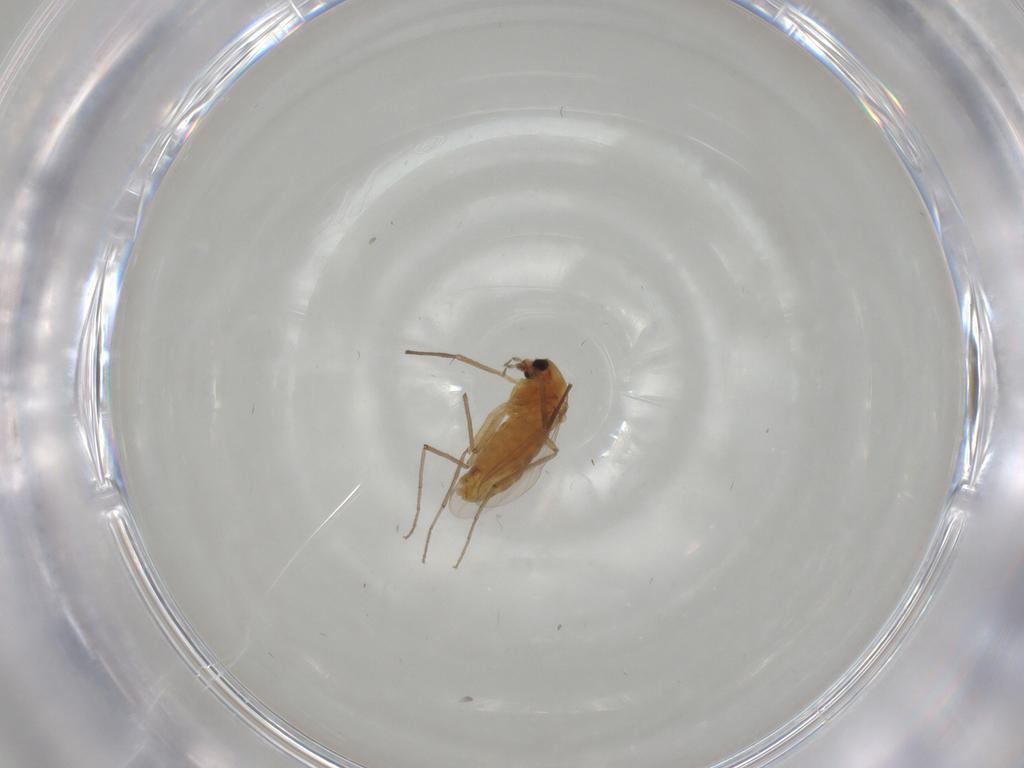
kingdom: Animalia
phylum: Arthropoda
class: Insecta
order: Diptera
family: Chironomidae
